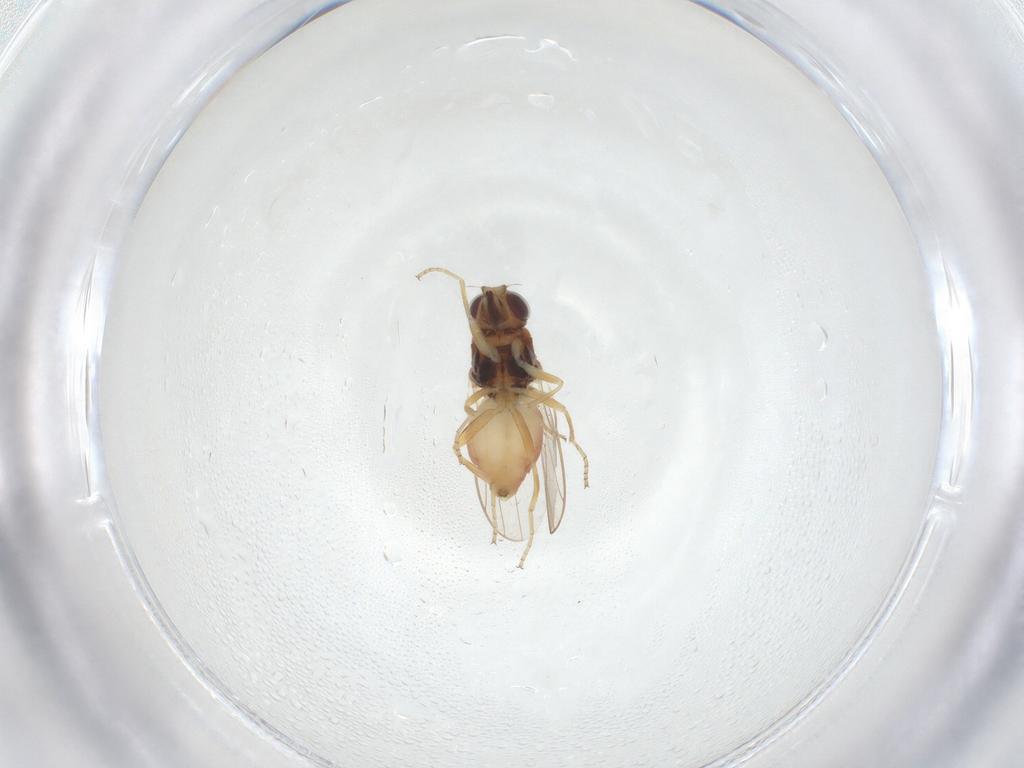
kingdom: Animalia
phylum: Arthropoda
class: Insecta
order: Diptera
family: Chloropidae
